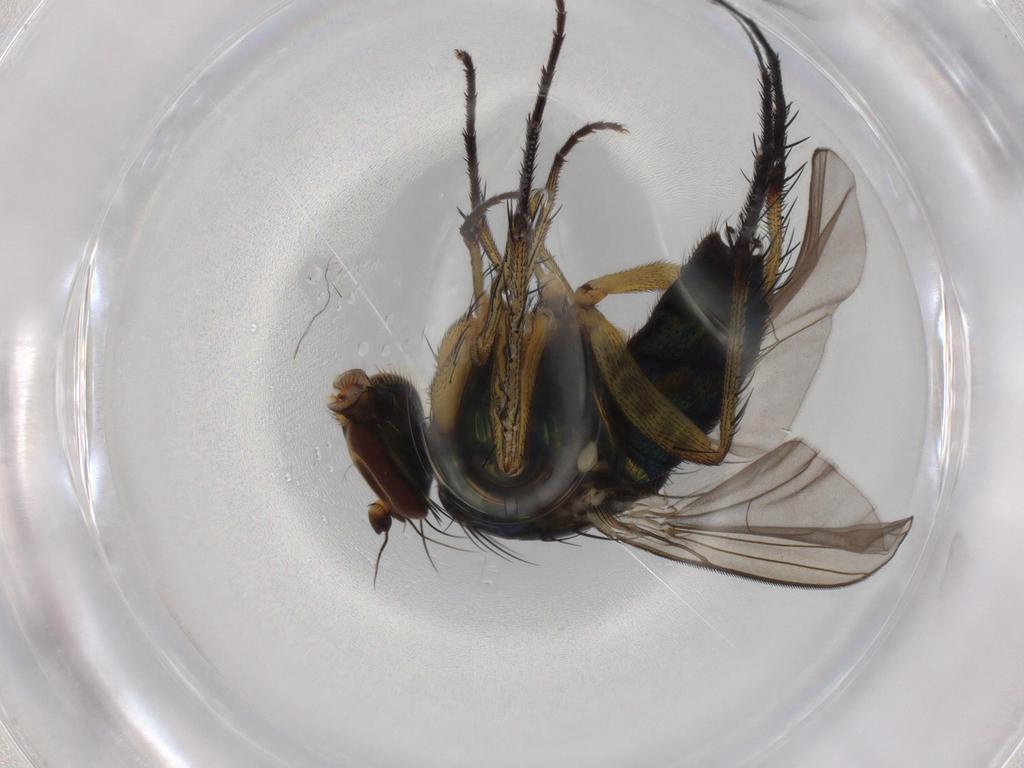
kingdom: Animalia
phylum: Arthropoda
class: Insecta
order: Diptera
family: Dolichopodidae
